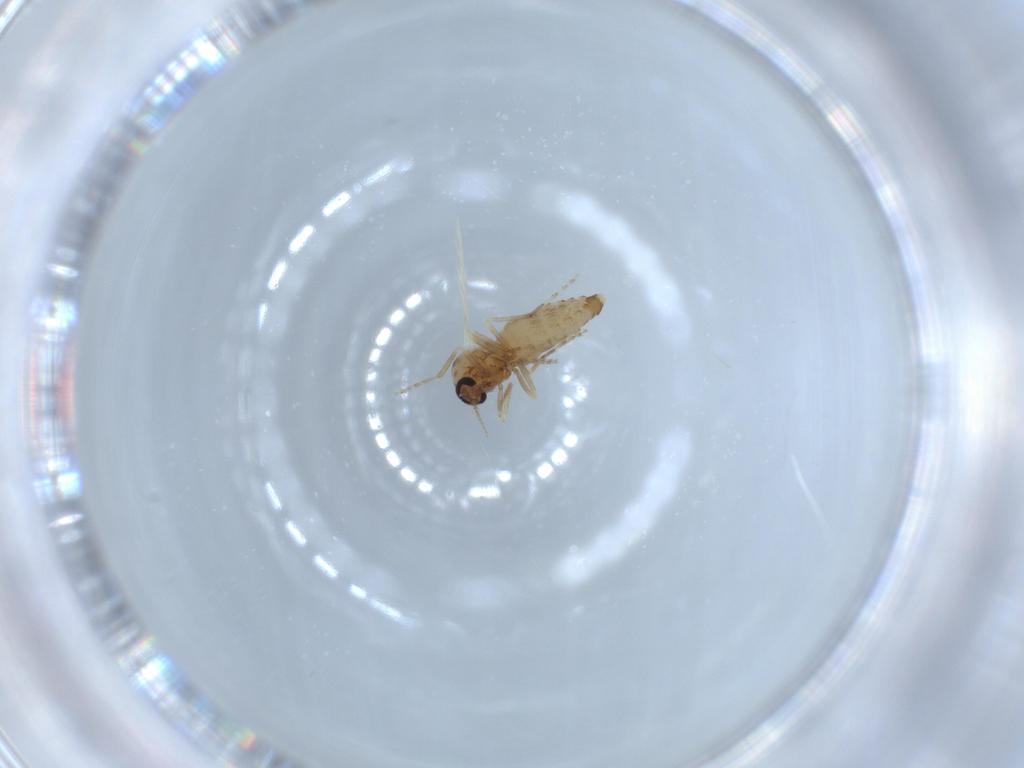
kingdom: Animalia
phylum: Arthropoda
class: Insecta
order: Diptera
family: Ceratopogonidae
